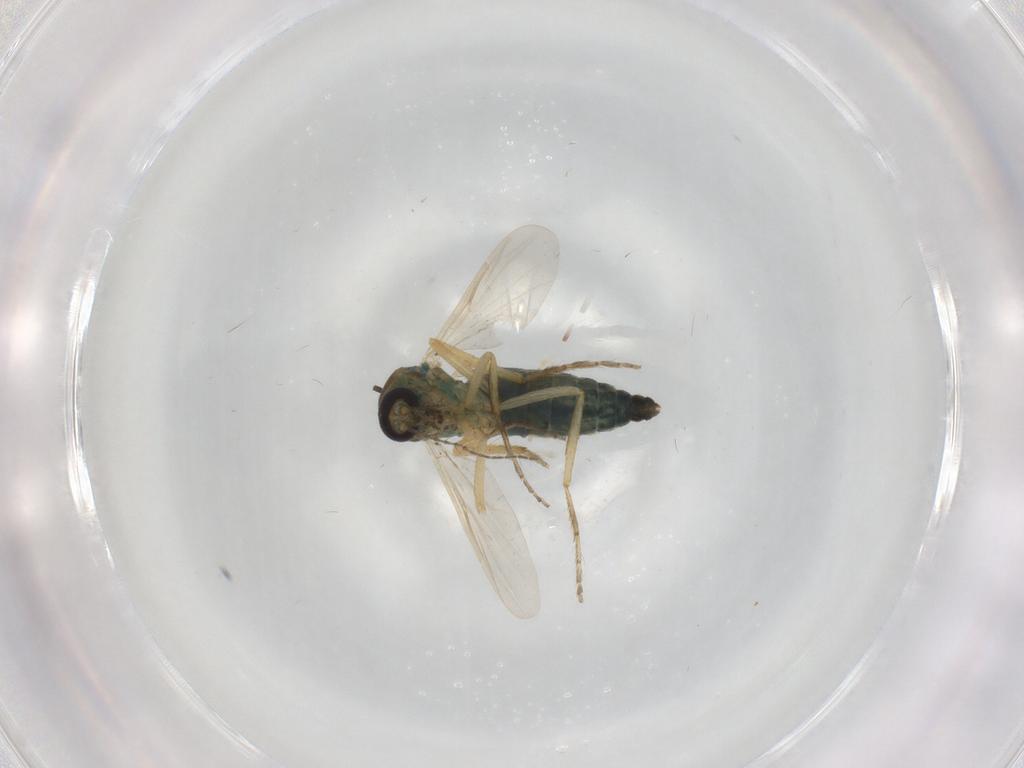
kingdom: Animalia
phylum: Arthropoda
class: Insecta
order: Diptera
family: Ceratopogonidae
